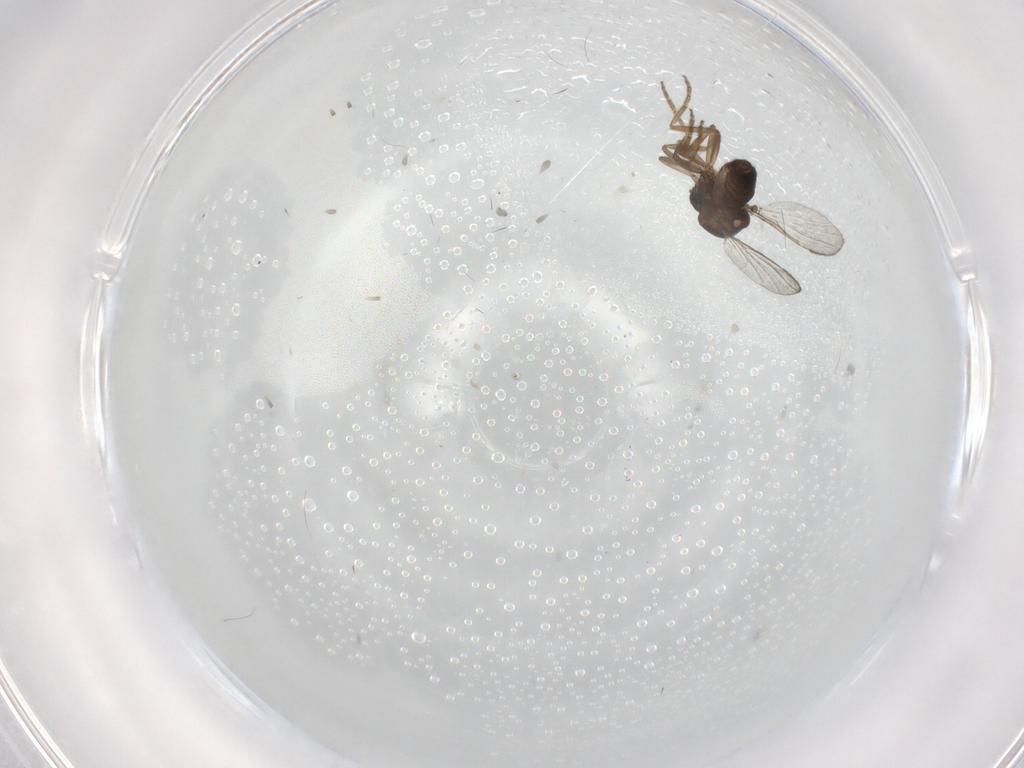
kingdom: Animalia
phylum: Arthropoda
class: Insecta
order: Diptera
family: Ceratopogonidae
